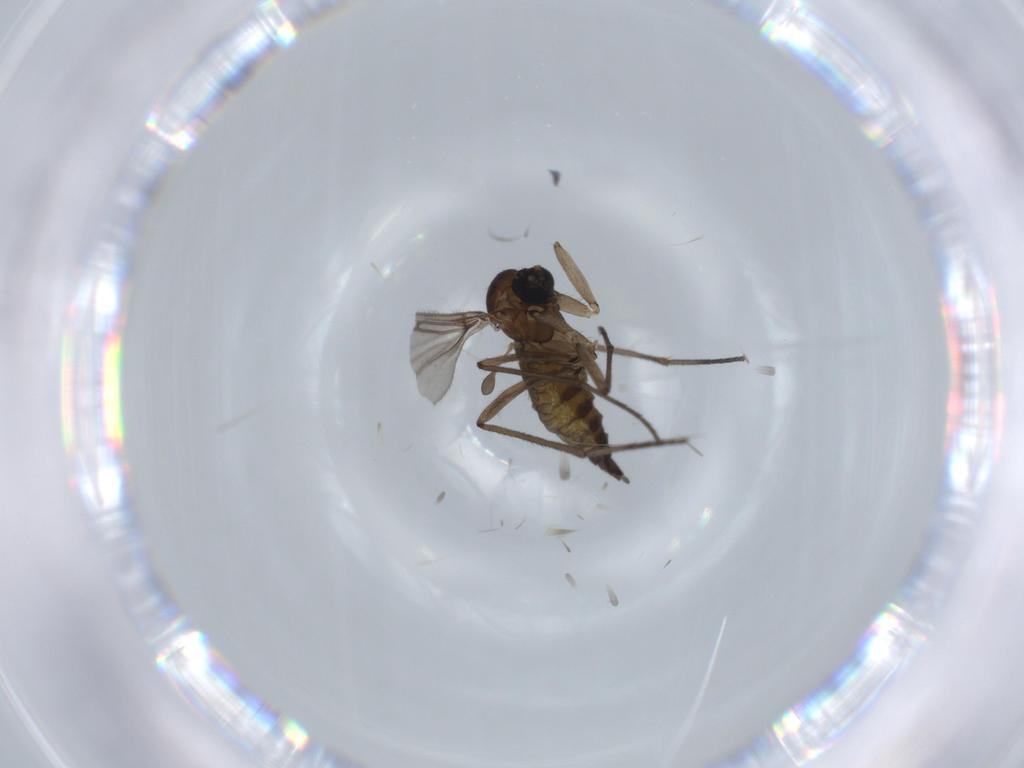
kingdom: Animalia
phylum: Arthropoda
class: Insecta
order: Diptera
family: Sciaridae
